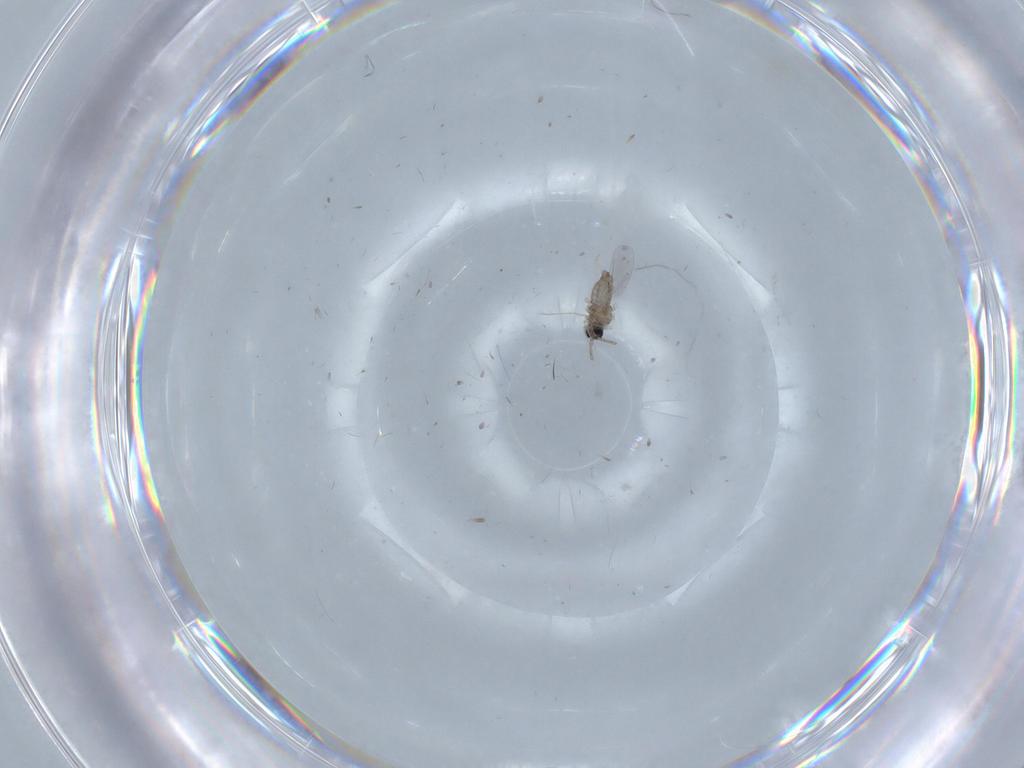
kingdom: Animalia
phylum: Arthropoda
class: Insecta
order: Diptera
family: Cecidomyiidae
